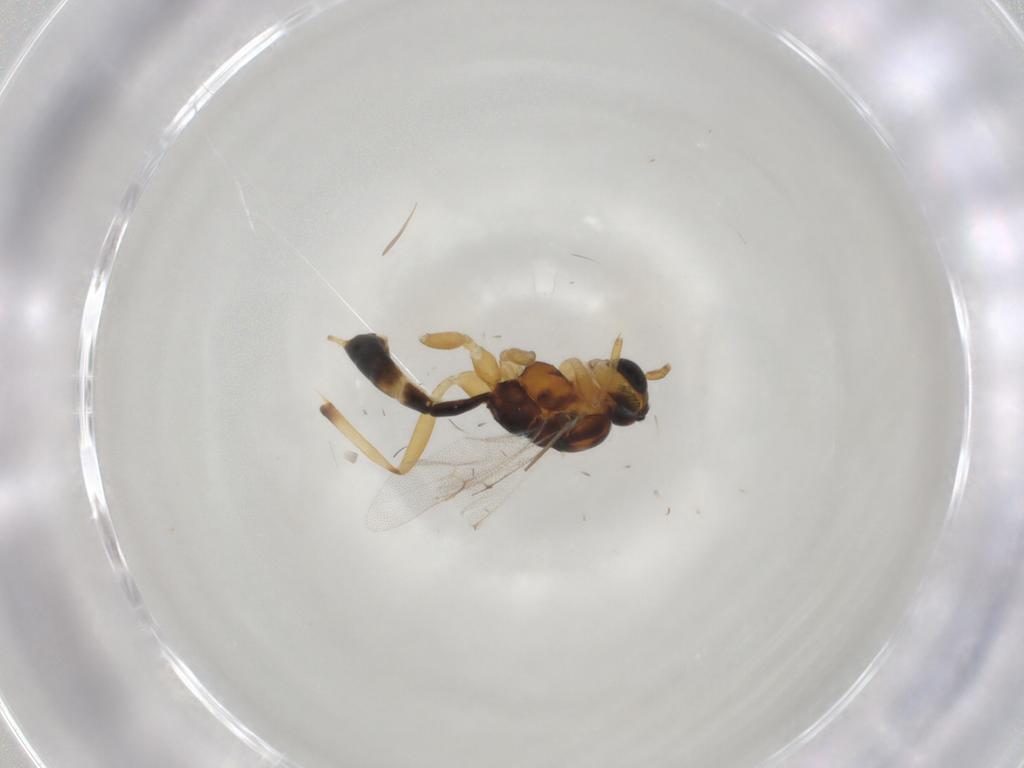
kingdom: Animalia
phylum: Arthropoda
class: Insecta
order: Hymenoptera
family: Ichneumonidae
